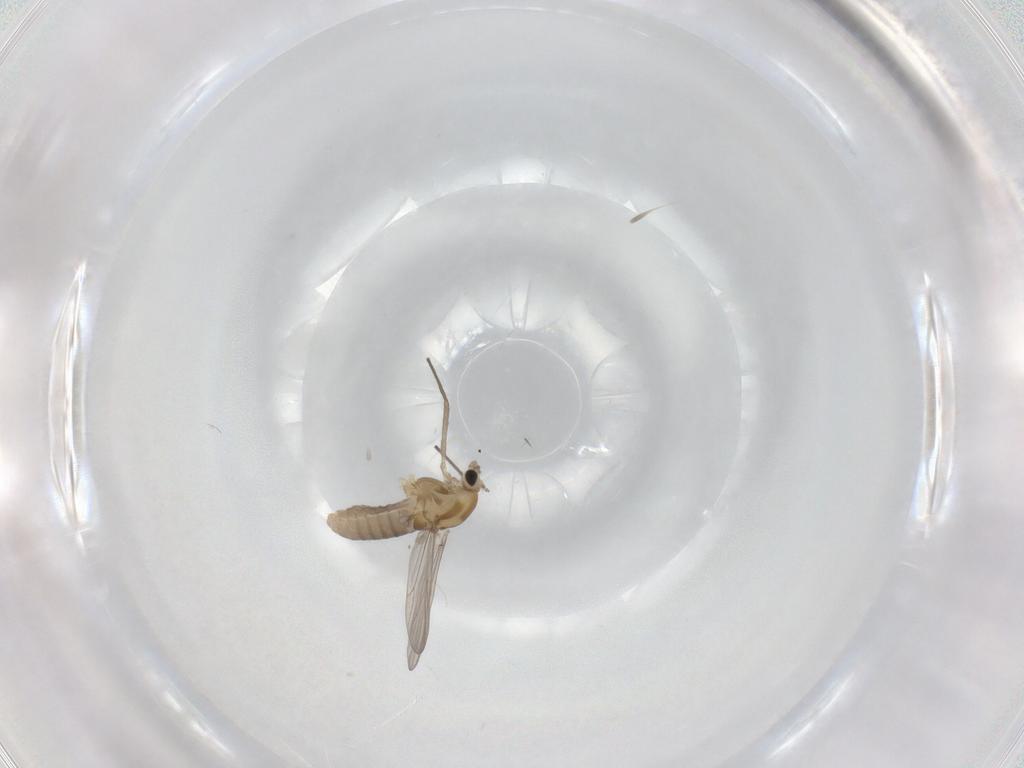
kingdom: Animalia
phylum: Arthropoda
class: Insecta
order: Diptera
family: Chironomidae
